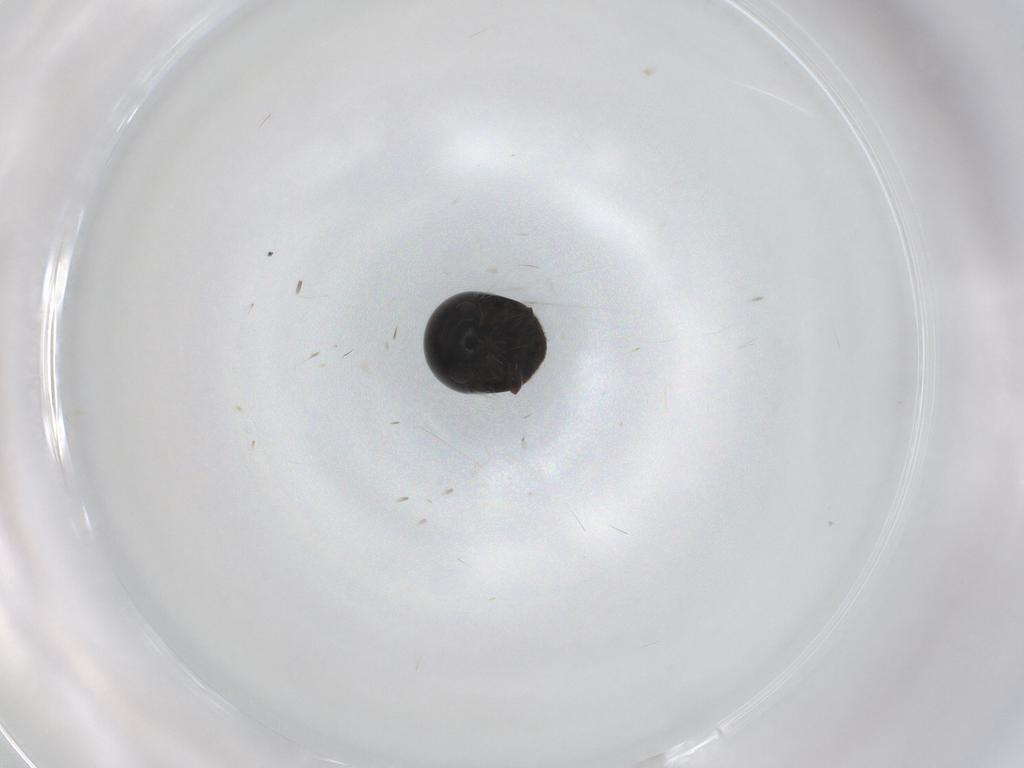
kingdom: Animalia
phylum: Arthropoda
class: Insecta
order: Coleoptera
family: Cybocephalidae
